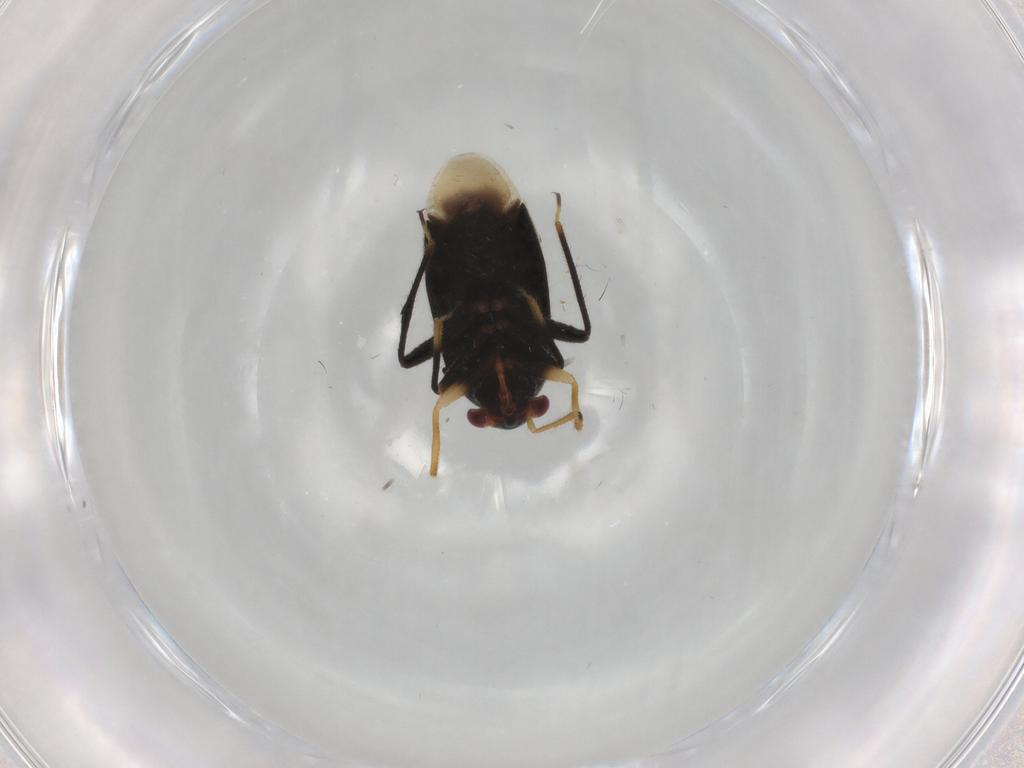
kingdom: Animalia
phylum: Arthropoda
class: Insecta
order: Hemiptera
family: Miridae
